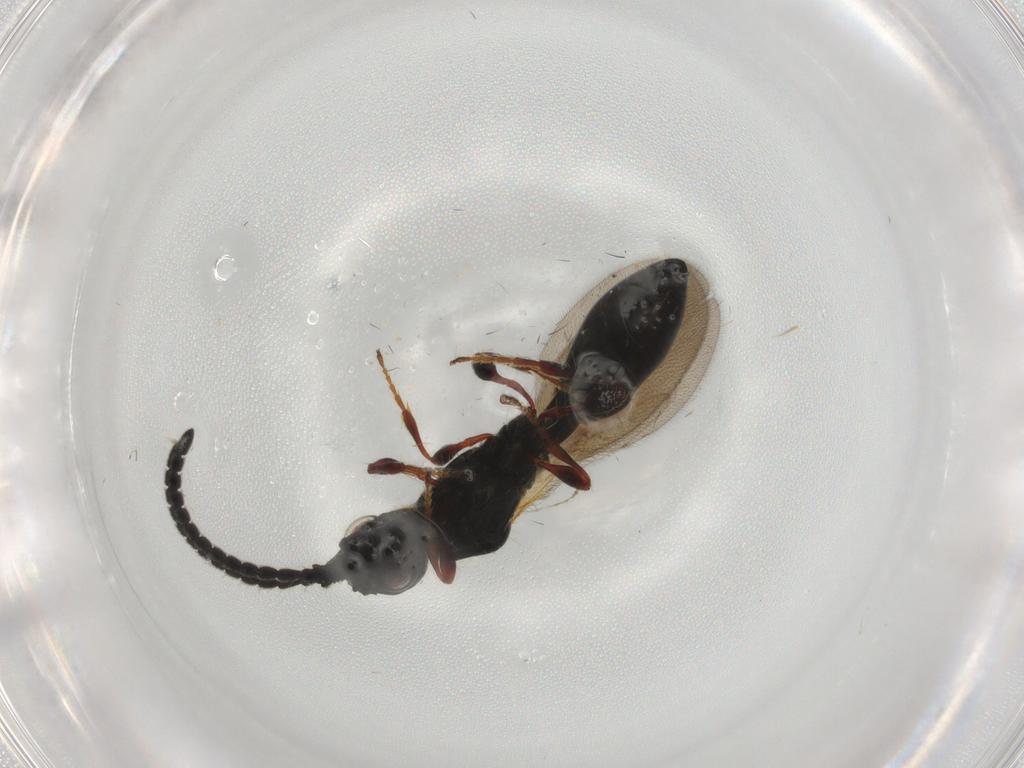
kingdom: Animalia
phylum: Arthropoda
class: Insecta
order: Hymenoptera
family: Diapriidae
